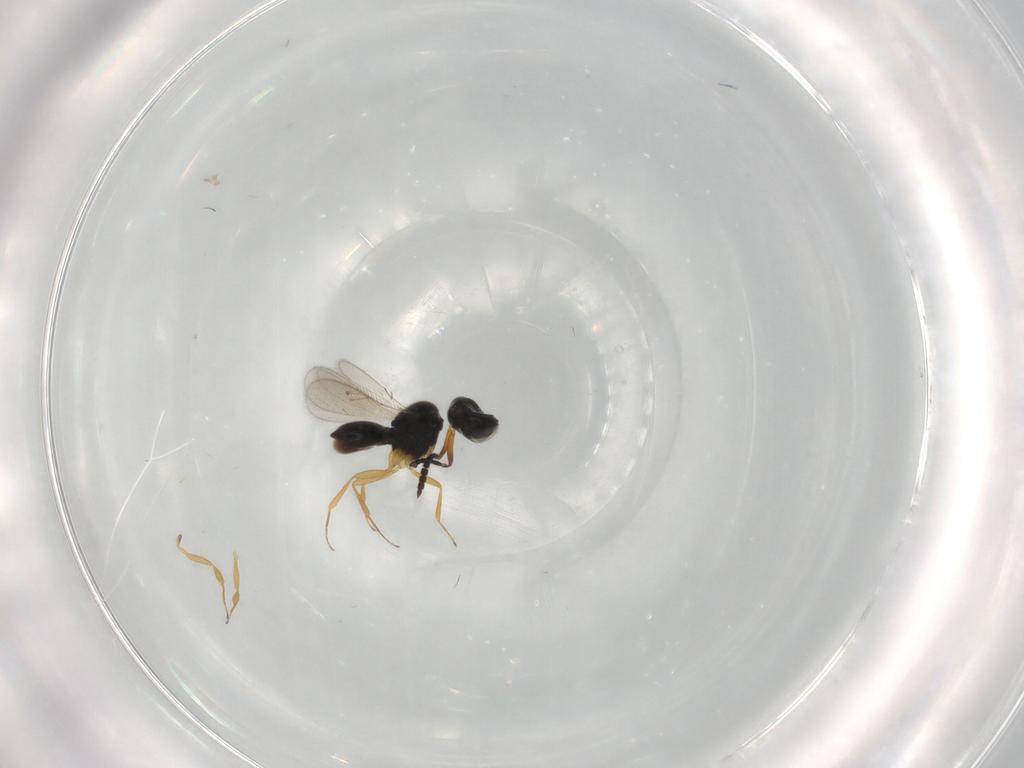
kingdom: Animalia
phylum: Arthropoda
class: Insecta
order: Hymenoptera
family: Scelionidae
